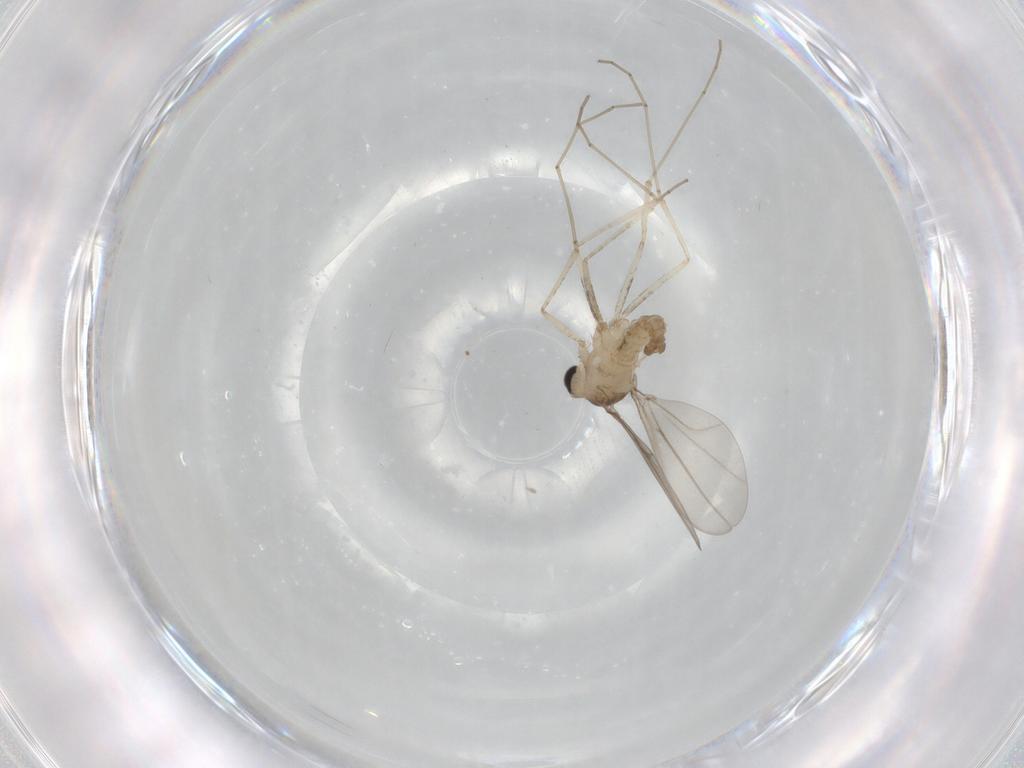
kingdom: Animalia
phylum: Arthropoda
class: Insecta
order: Diptera
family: Cecidomyiidae
